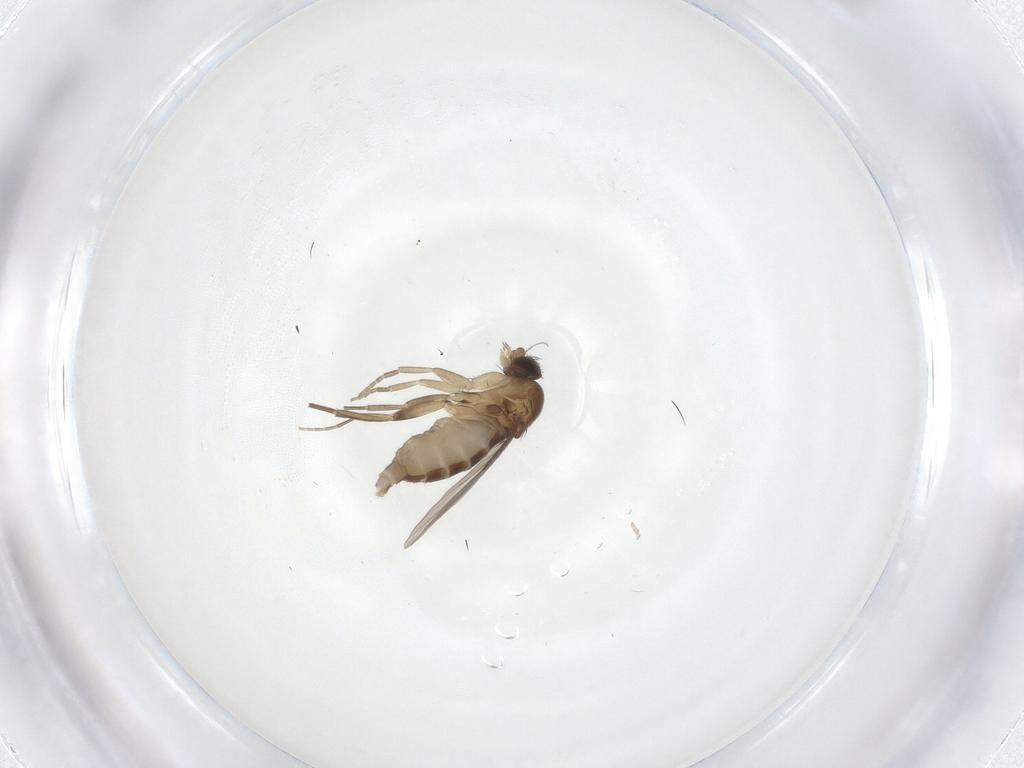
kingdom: Animalia
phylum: Arthropoda
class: Insecta
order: Diptera
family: Phoridae
